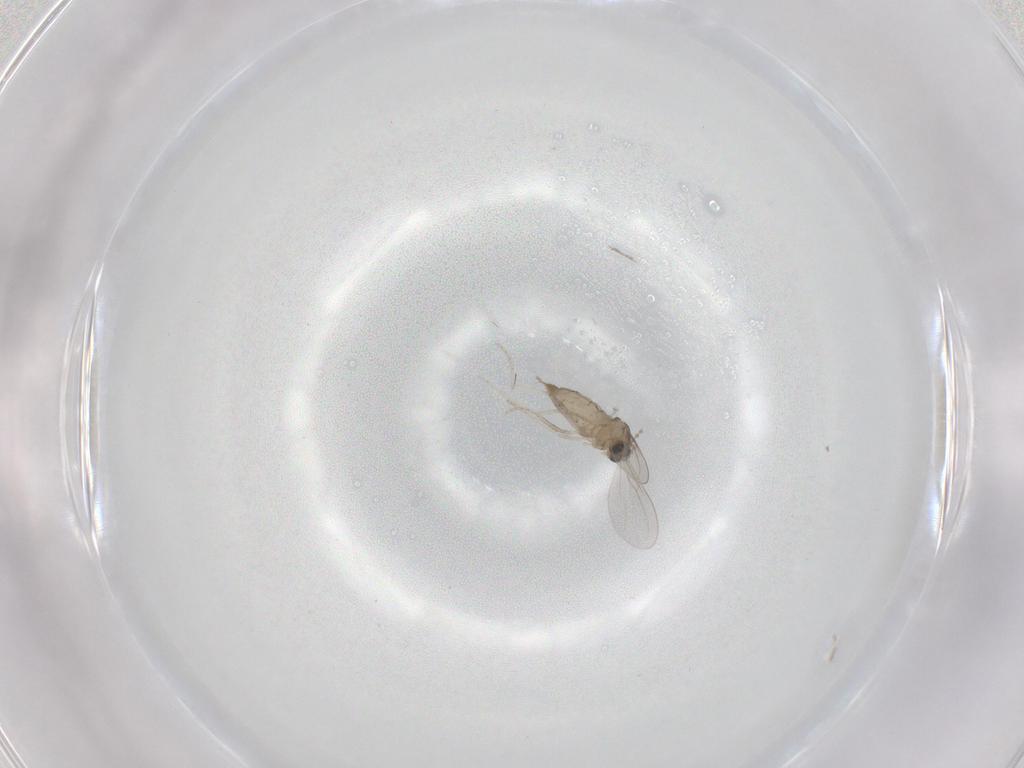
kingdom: Animalia
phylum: Arthropoda
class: Insecta
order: Diptera
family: Cecidomyiidae
